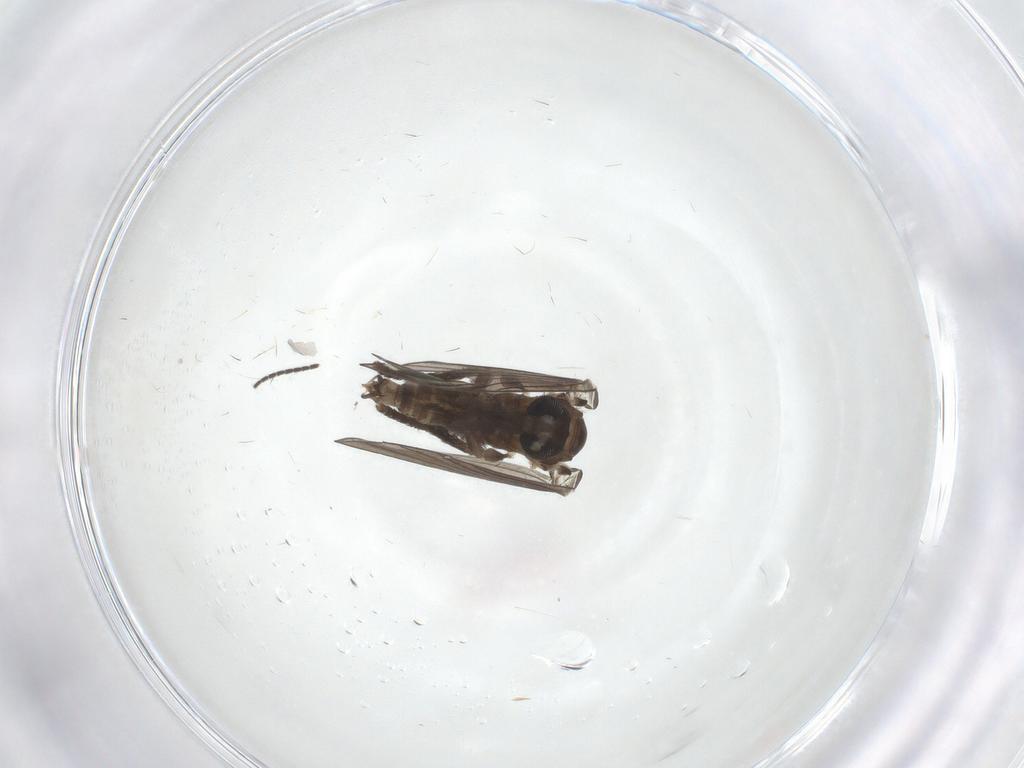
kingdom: Animalia
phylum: Arthropoda
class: Insecta
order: Diptera
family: Psychodidae
